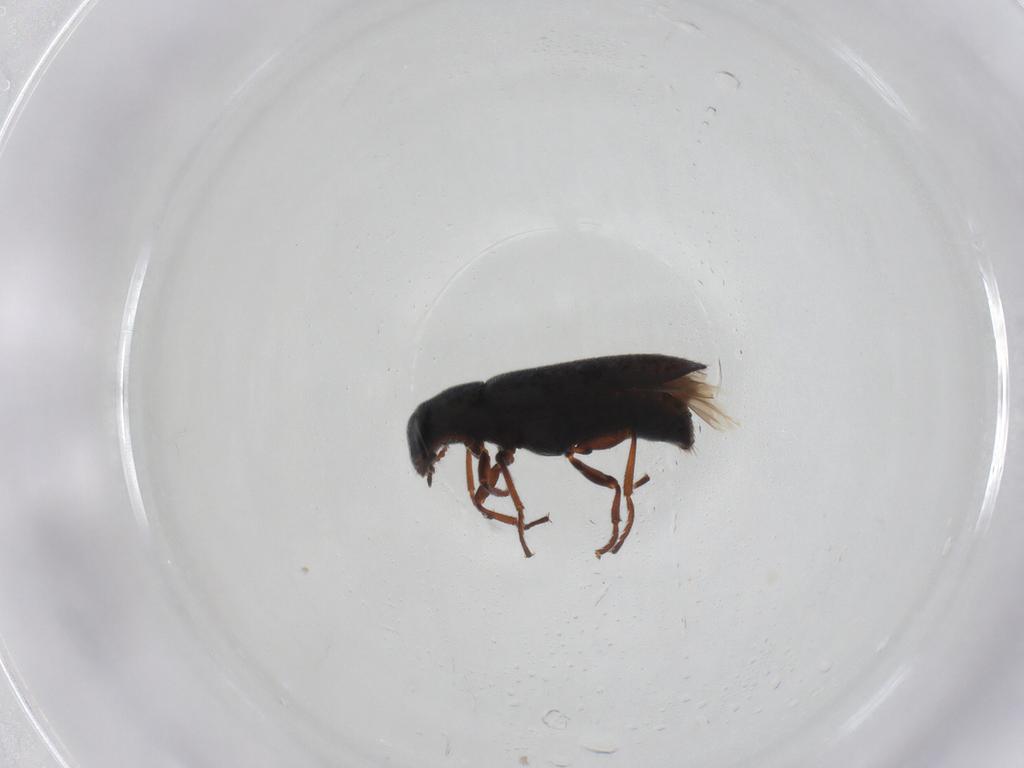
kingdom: Animalia
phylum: Arthropoda
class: Insecta
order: Coleoptera
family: Melyridae
